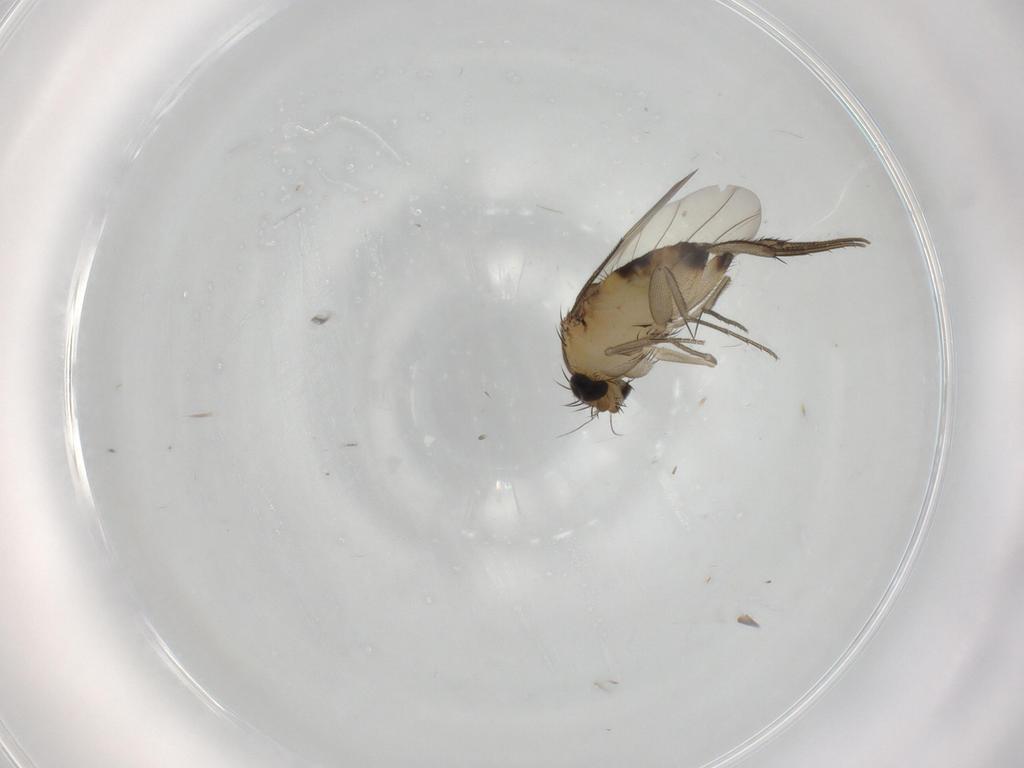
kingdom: Animalia
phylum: Arthropoda
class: Insecta
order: Diptera
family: Phoridae
